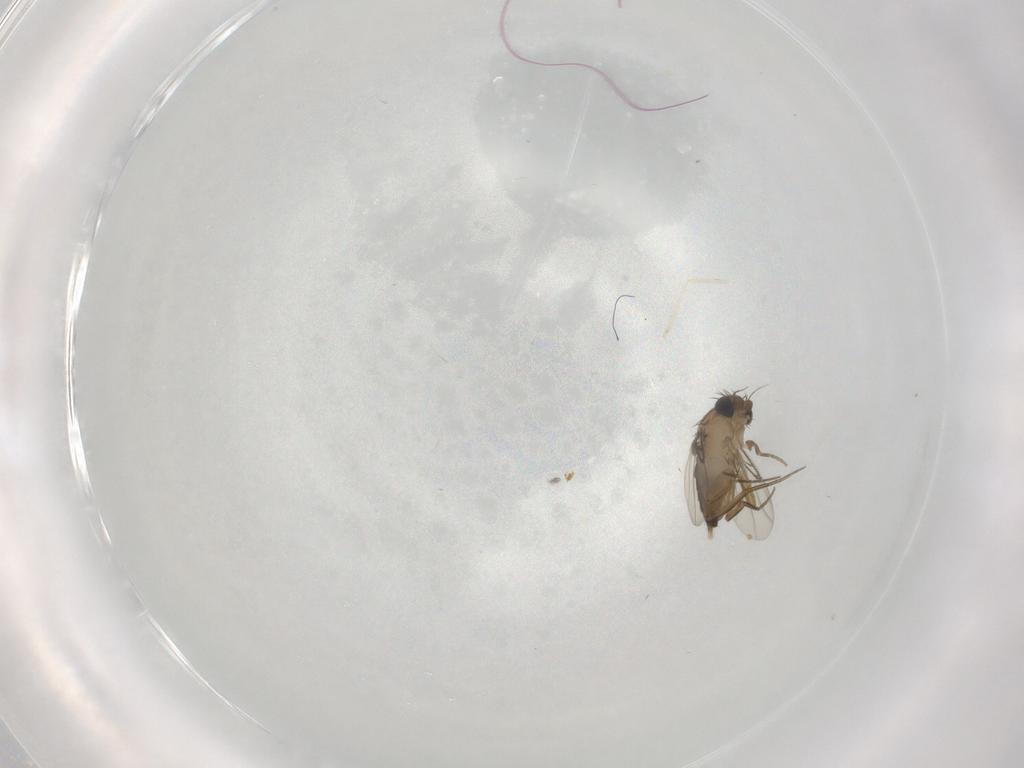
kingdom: Animalia
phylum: Arthropoda
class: Insecta
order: Diptera
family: Phoridae
